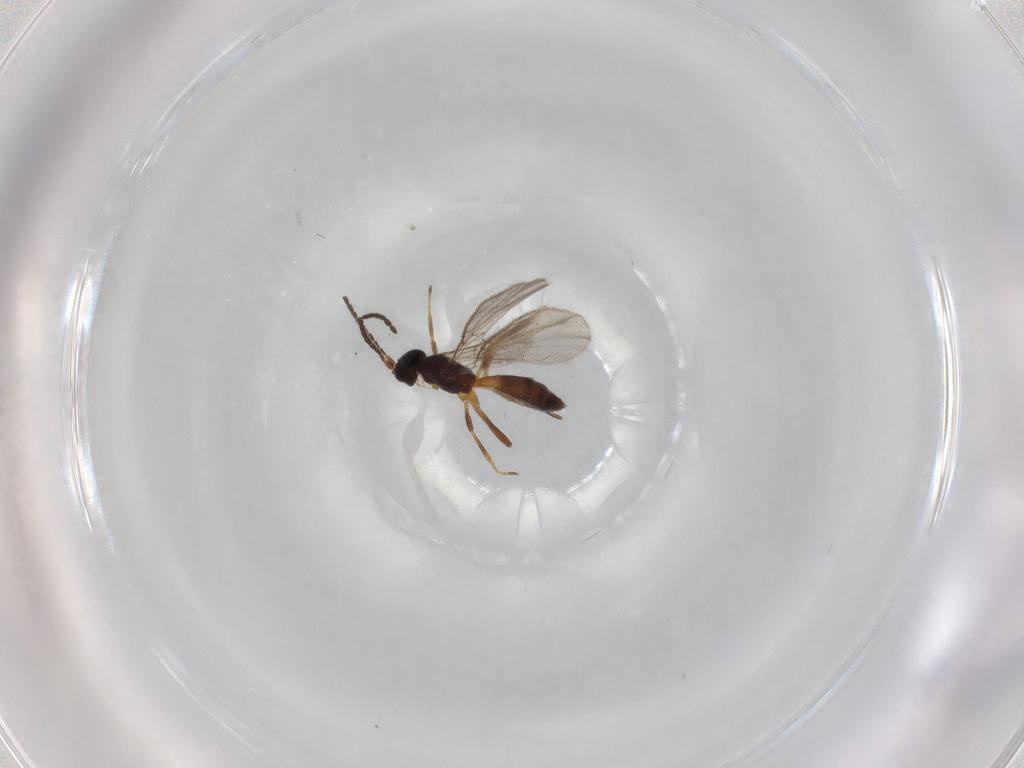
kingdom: Animalia
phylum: Arthropoda
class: Insecta
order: Hymenoptera
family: Braconidae
